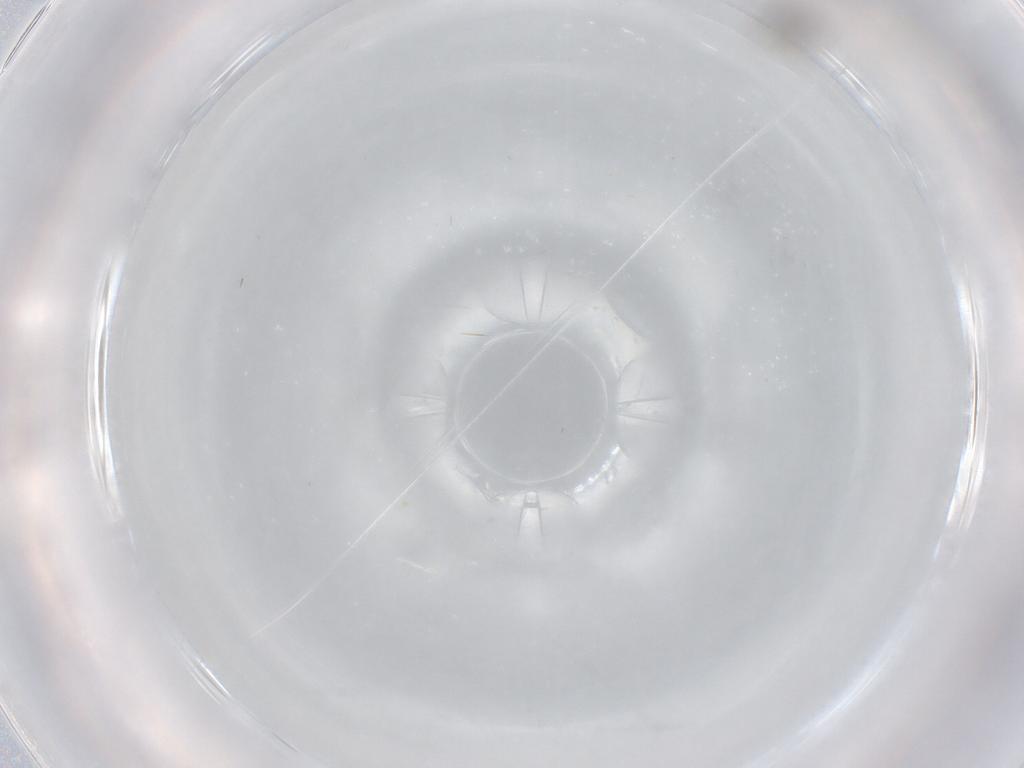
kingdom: Animalia
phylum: Arthropoda
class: Insecta
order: Diptera
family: Cecidomyiidae
